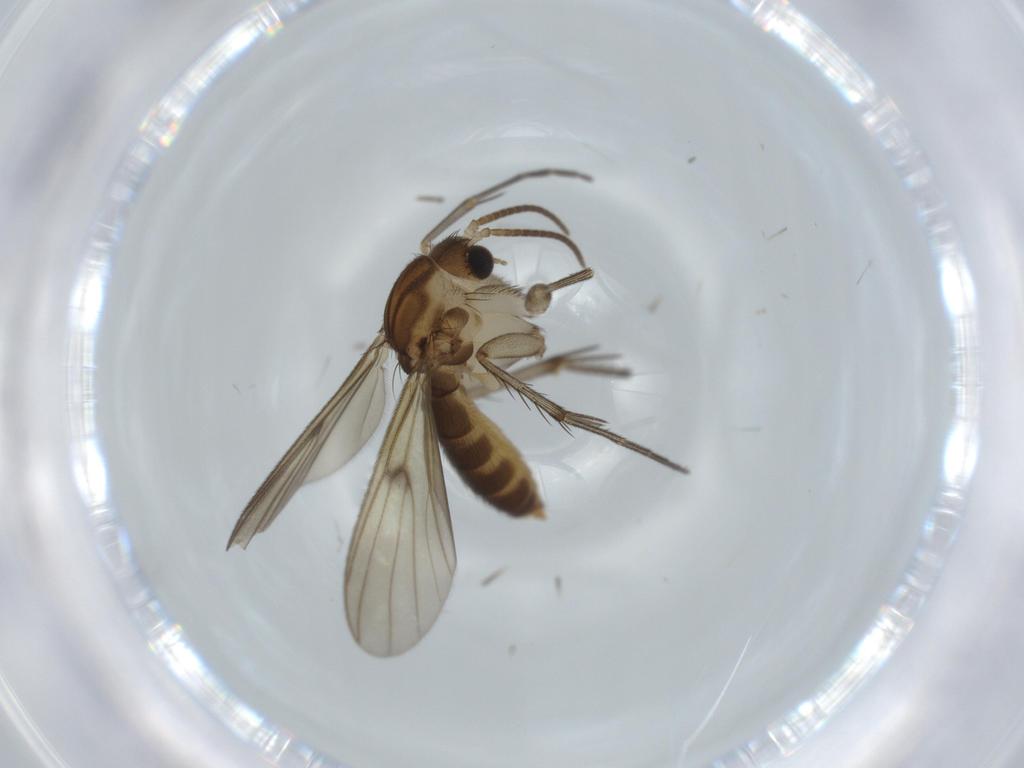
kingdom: Animalia
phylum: Arthropoda
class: Insecta
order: Diptera
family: Mycetophilidae
